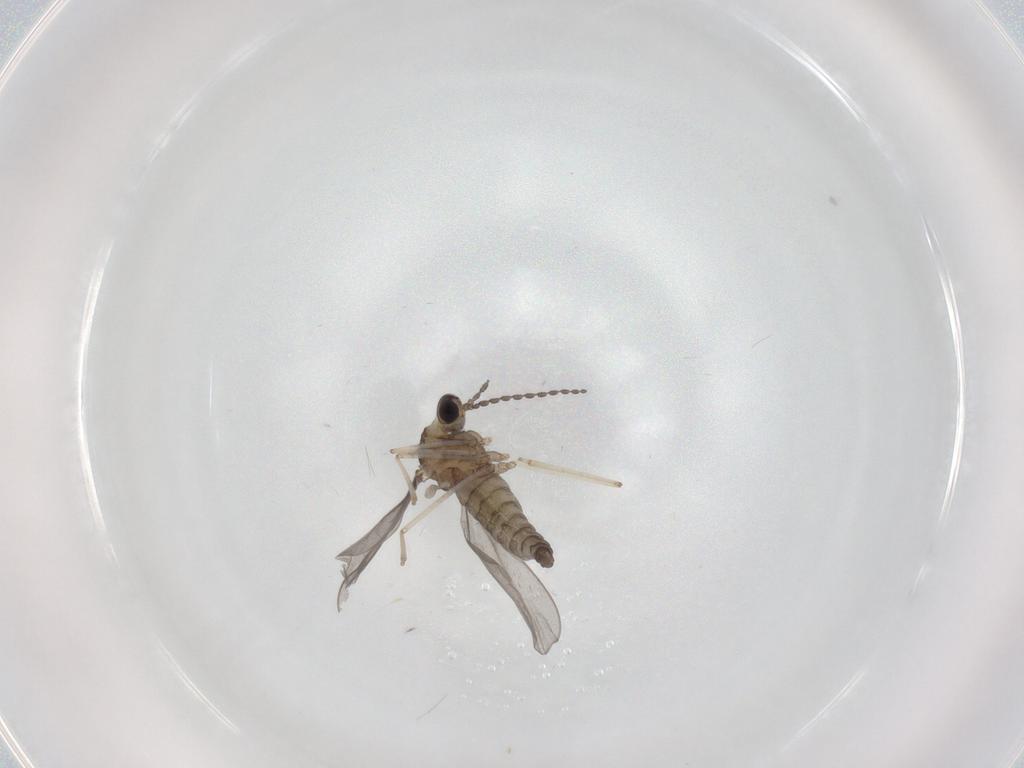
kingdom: Animalia
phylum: Arthropoda
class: Insecta
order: Diptera
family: Cecidomyiidae
